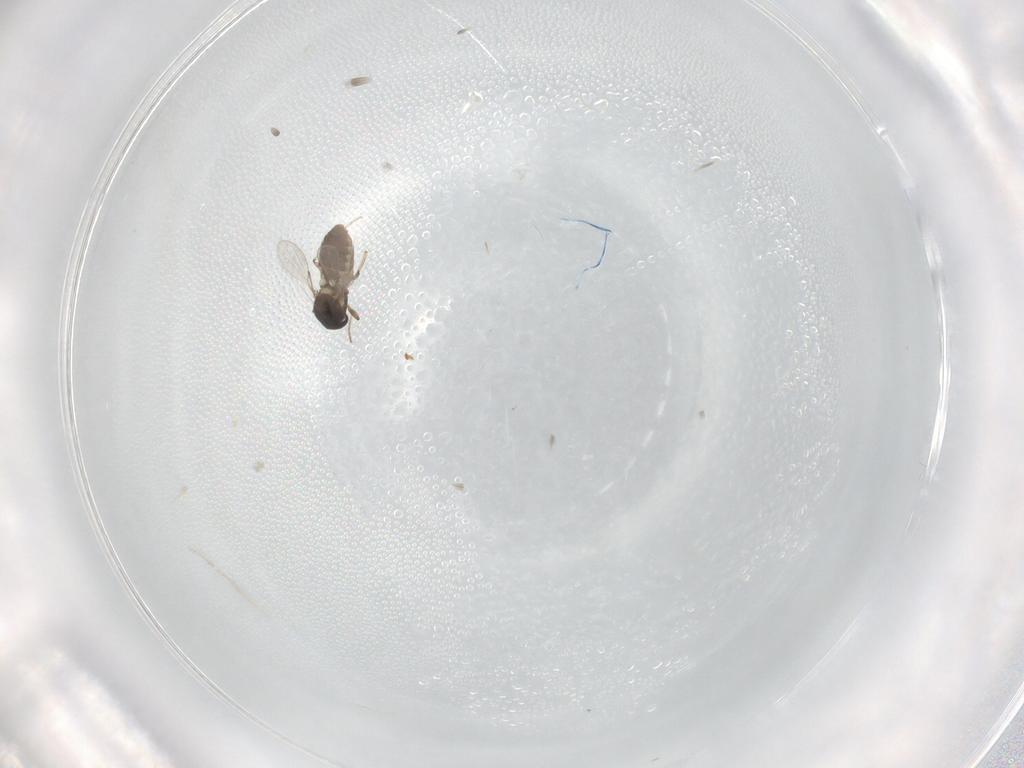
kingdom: Animalia
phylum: Arthropoda
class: Insecta
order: Diptera
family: Ceratopogonidae
